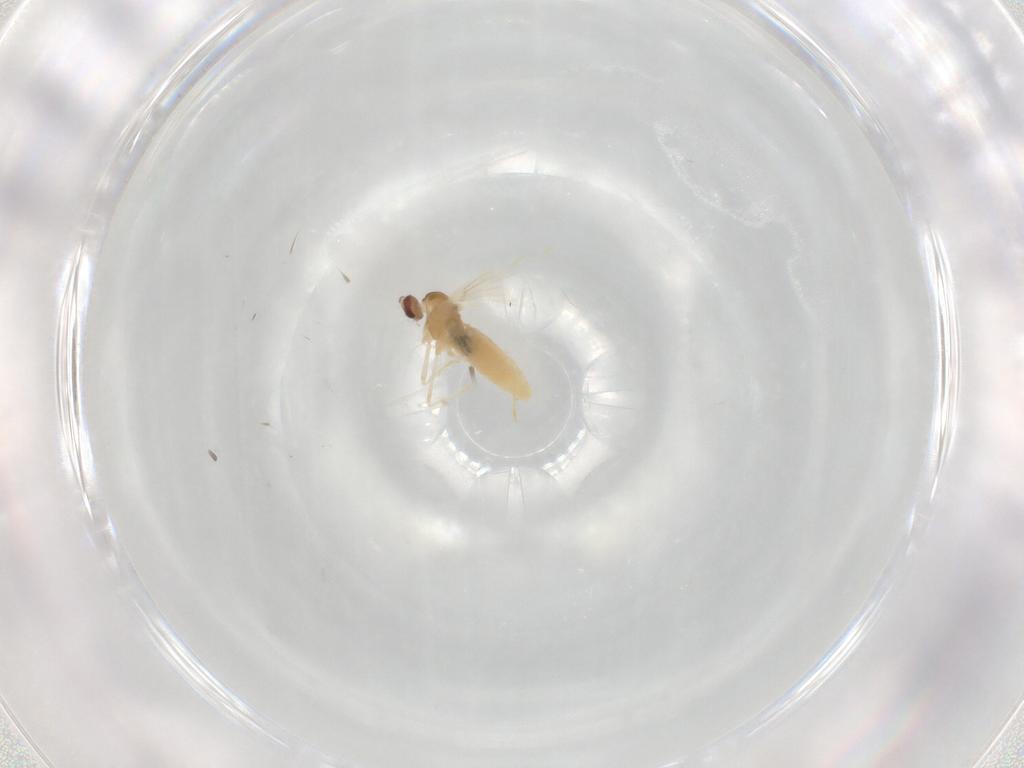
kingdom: Animalia
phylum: Arthropoda
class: Insecta
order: Diptera
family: Cecidomyiidae
